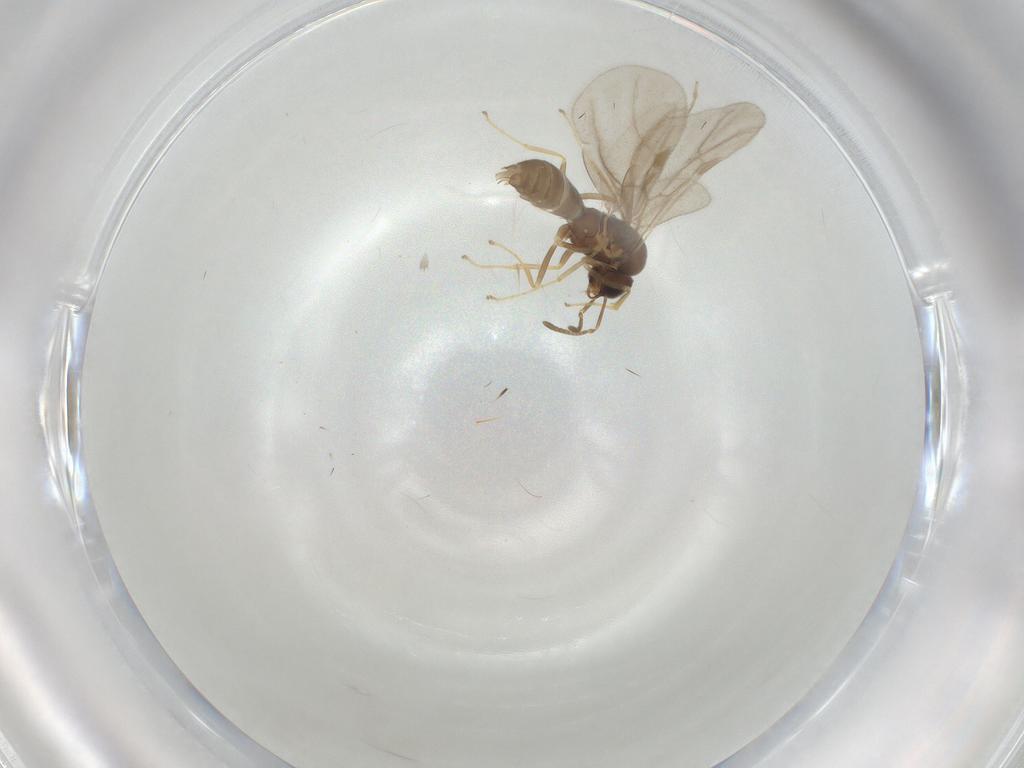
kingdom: Animalia
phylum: Arthropoda
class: Insecta
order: Hymenoptera
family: Formicidae
